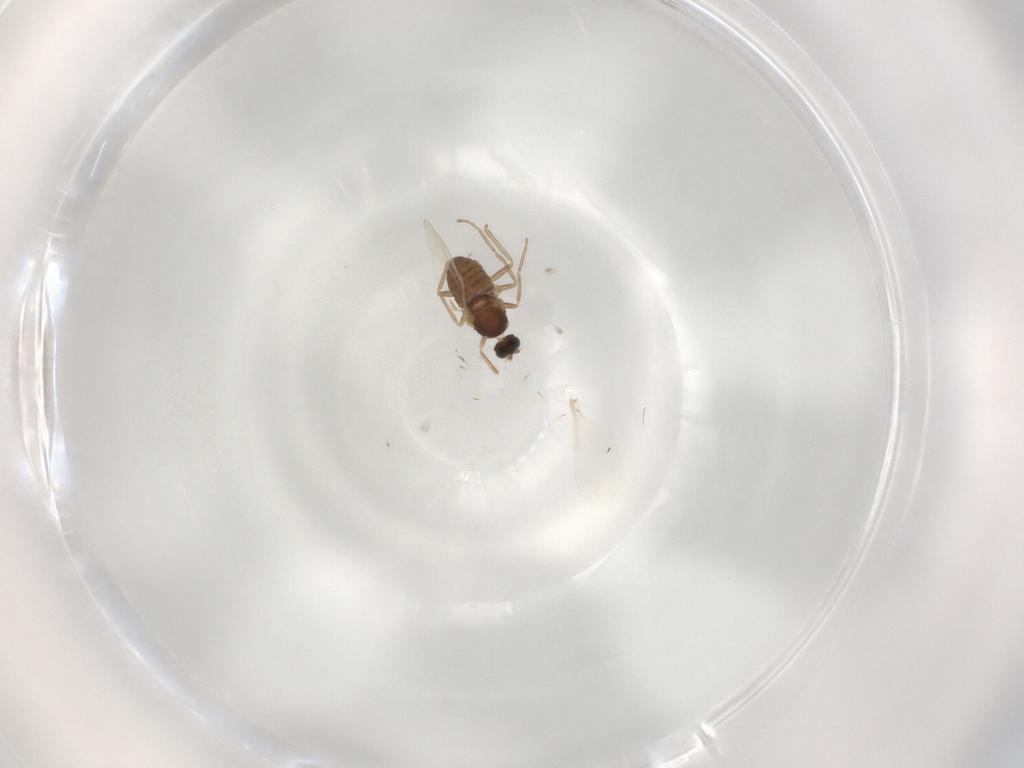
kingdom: Animalia
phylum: Arthropoda
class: Insecta
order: Diptera
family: Cecidomyiidae
